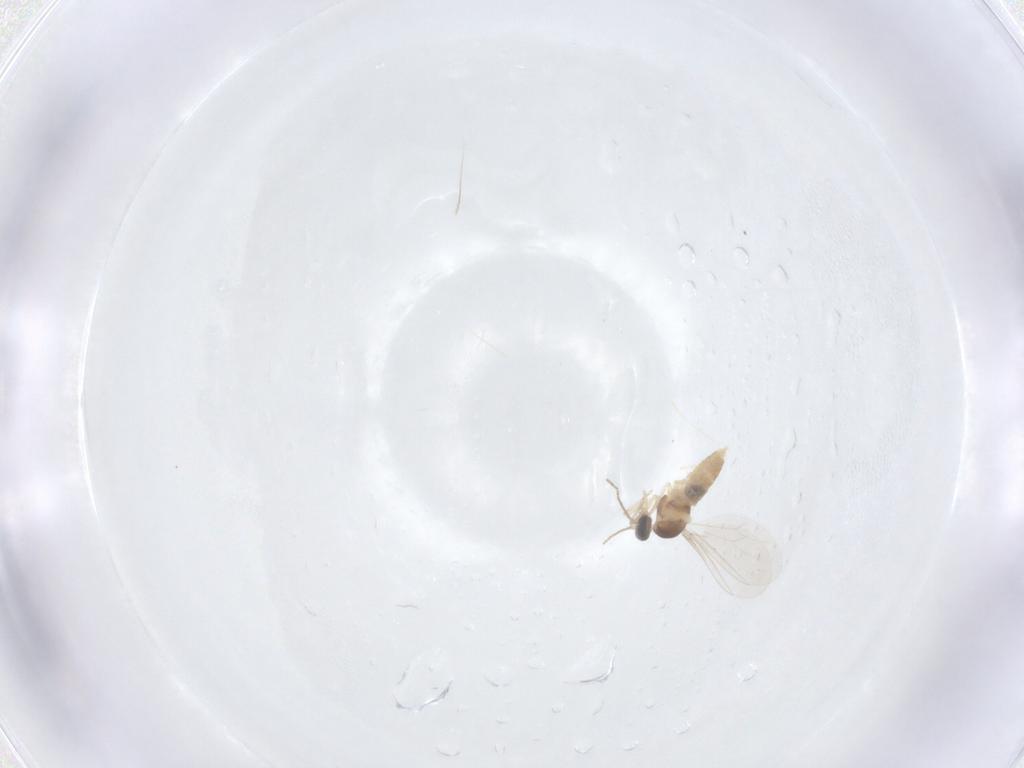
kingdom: Animalia
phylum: Arthropoda
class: Insecta
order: Diptera
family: Cecidomyiidae
